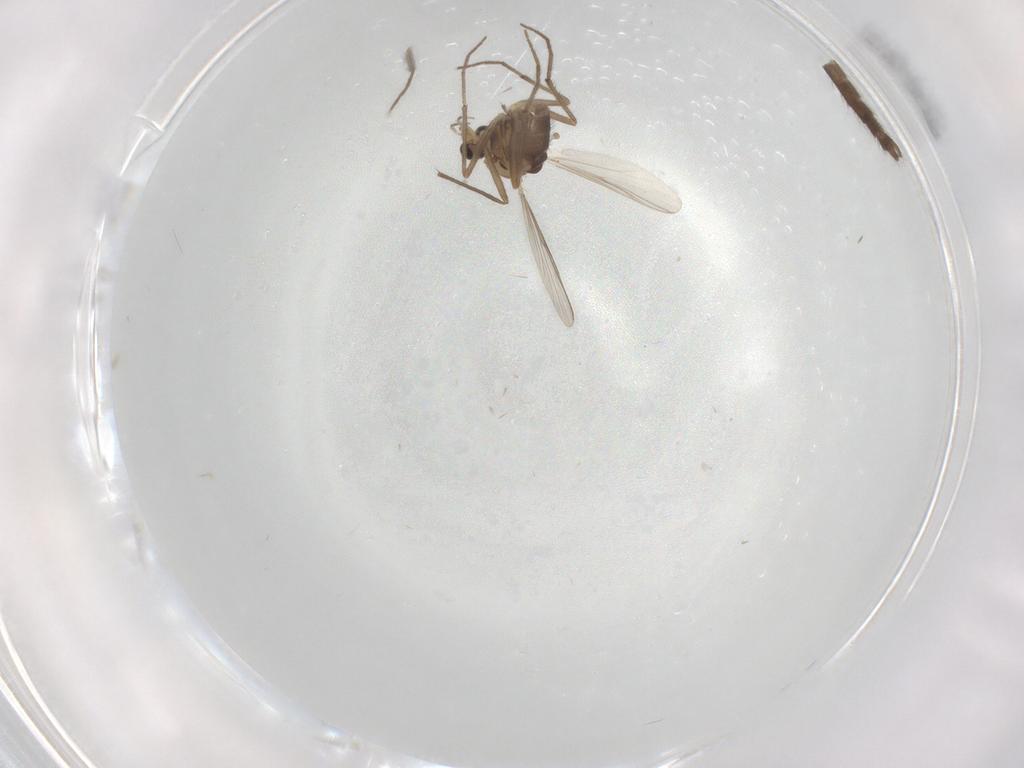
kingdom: Animalia
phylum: Arthropoda
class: Insecta
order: Diptera
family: Chironomidae
